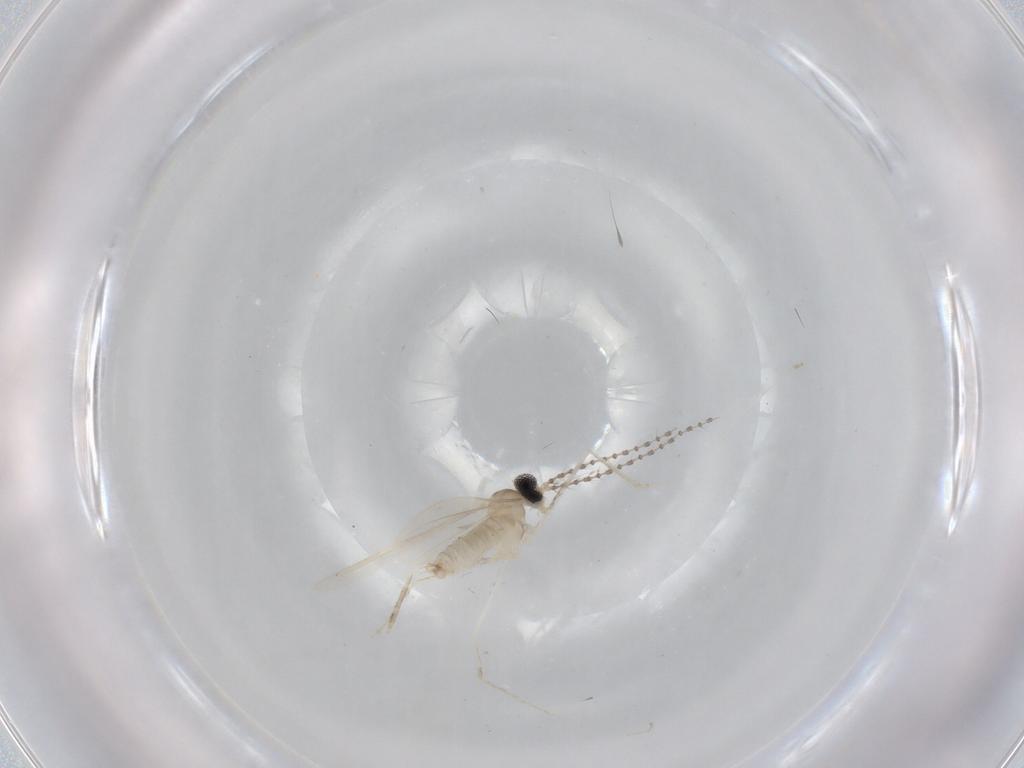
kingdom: Animalia
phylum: Arthropoda
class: Insecta
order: Diptera
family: Cecidomyiidae
